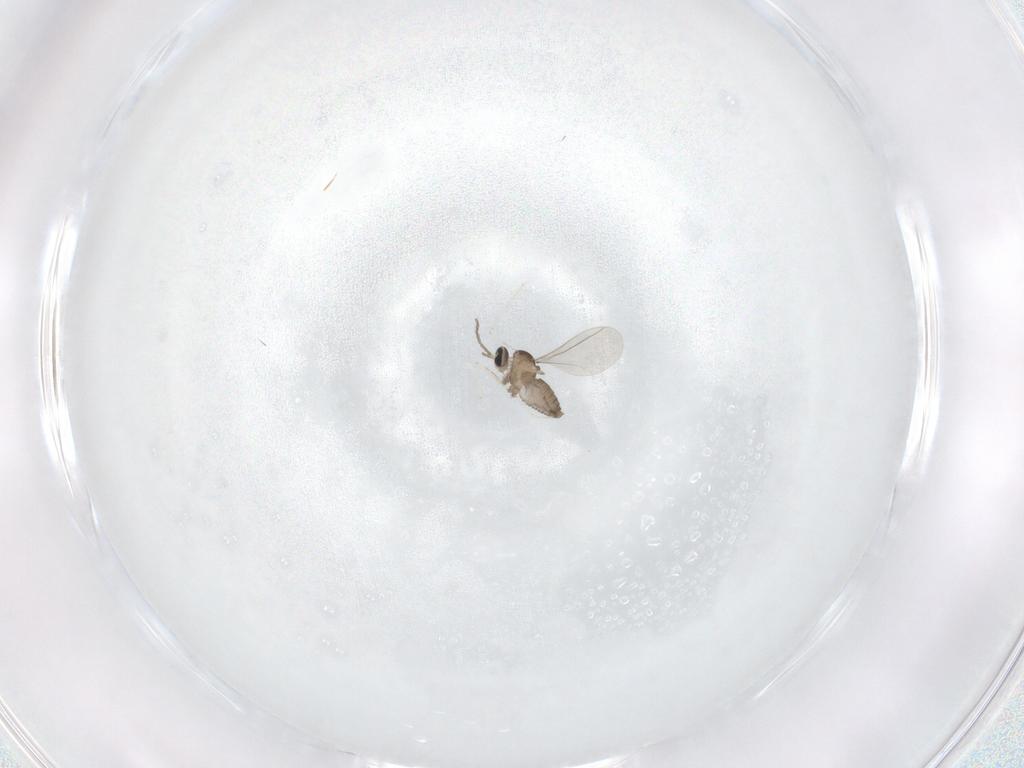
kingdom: Animalia
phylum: Arthropoda
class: Insecta
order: Diptera
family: Cecidomyiidae
